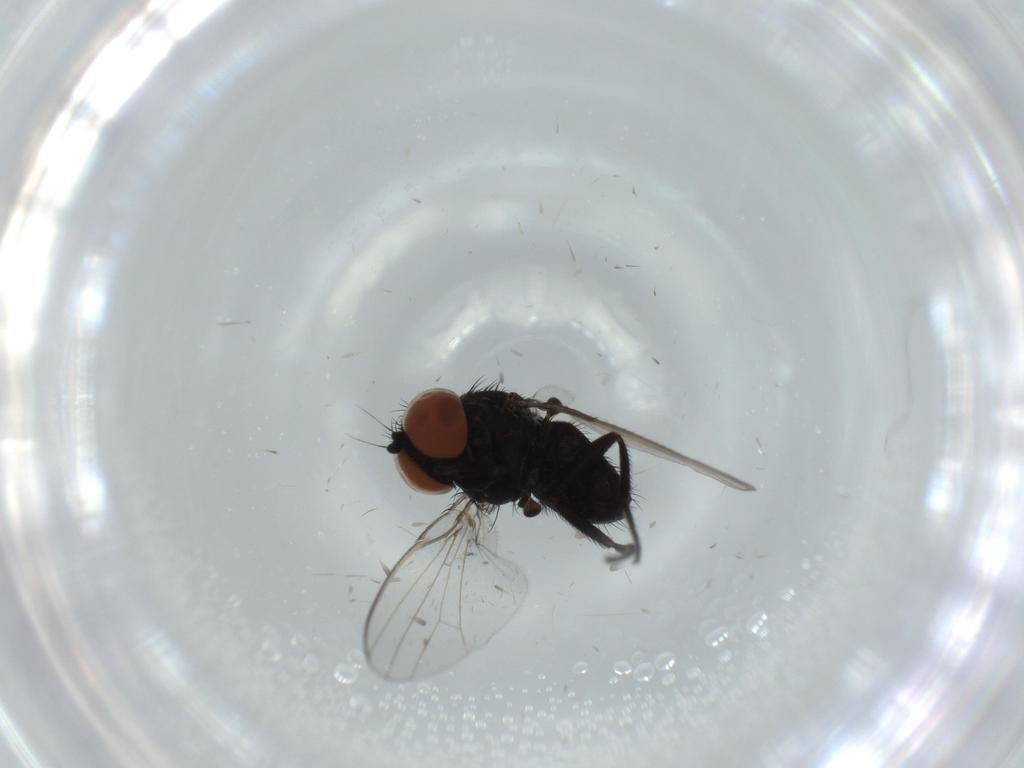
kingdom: Animalia
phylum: Arthropoda
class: Insecta
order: Diptera
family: Milichiidae
